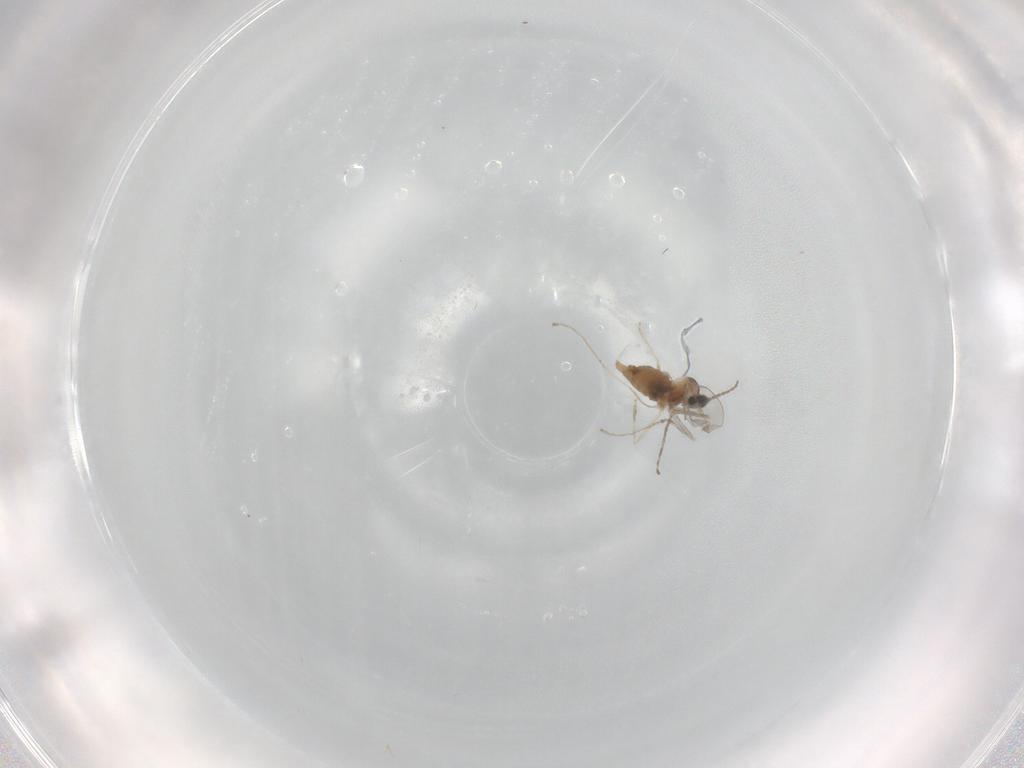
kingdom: Animalia
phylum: Arthropoda
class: Insecta
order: Diptera
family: Cecidomyiidae
